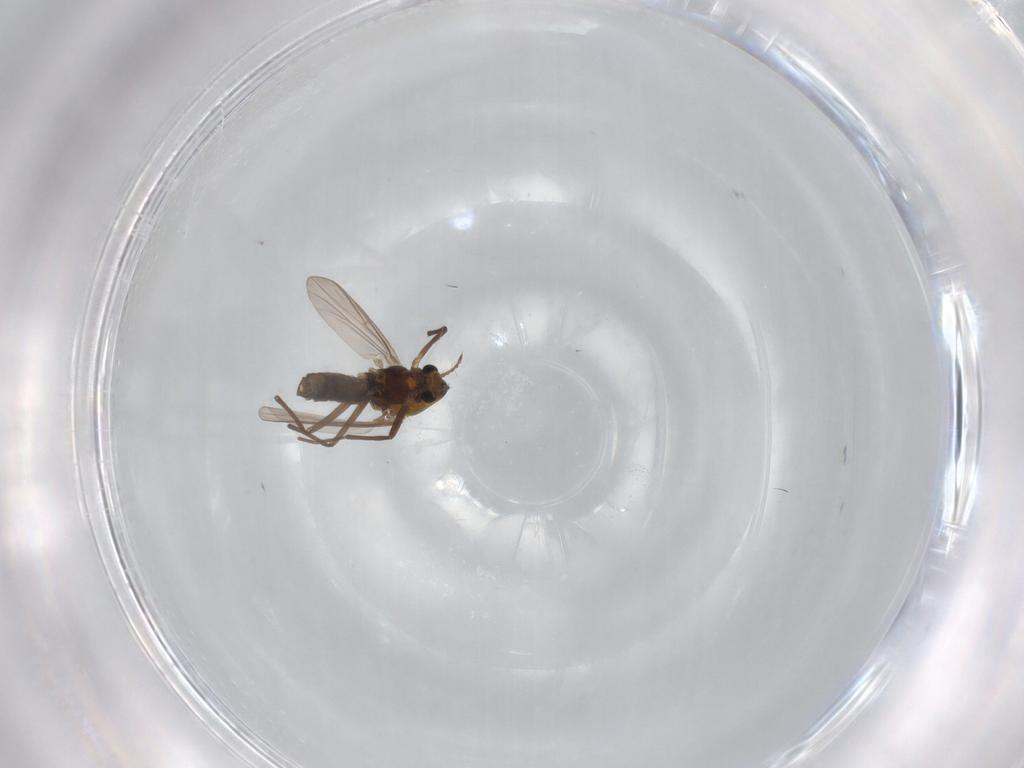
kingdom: Animalia
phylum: Arthropoda
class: Insecta
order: Diptera
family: Chironomidae
